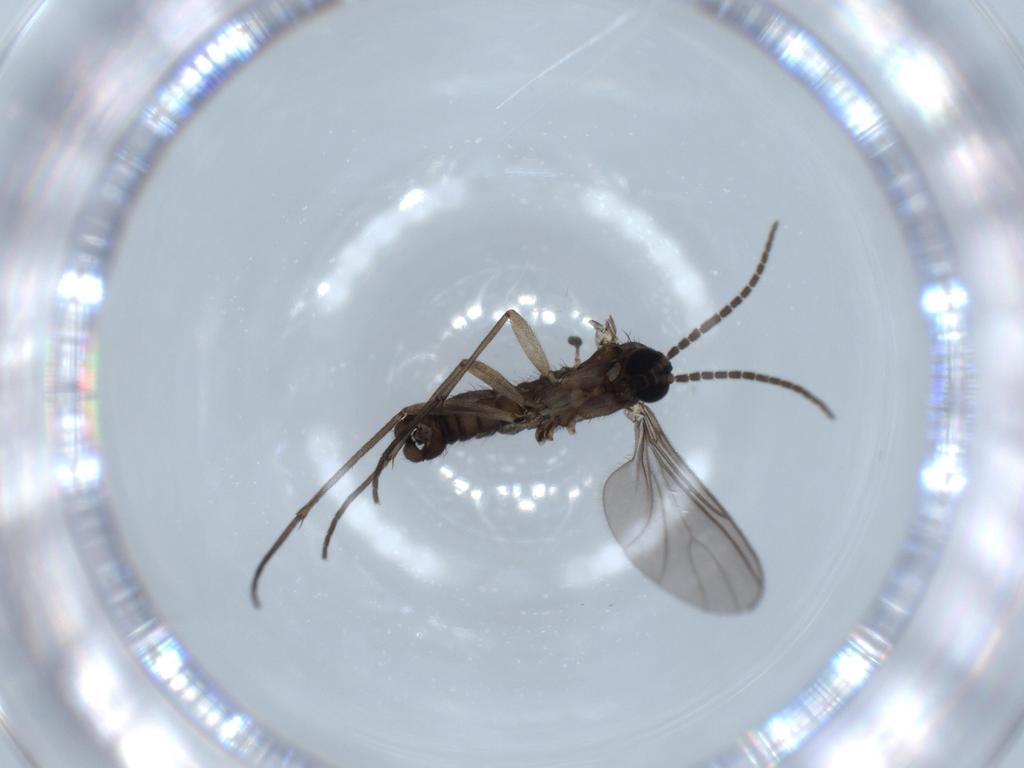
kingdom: Animalia
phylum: Arthropoda
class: Insecta
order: Diptera
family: Sciaridae
